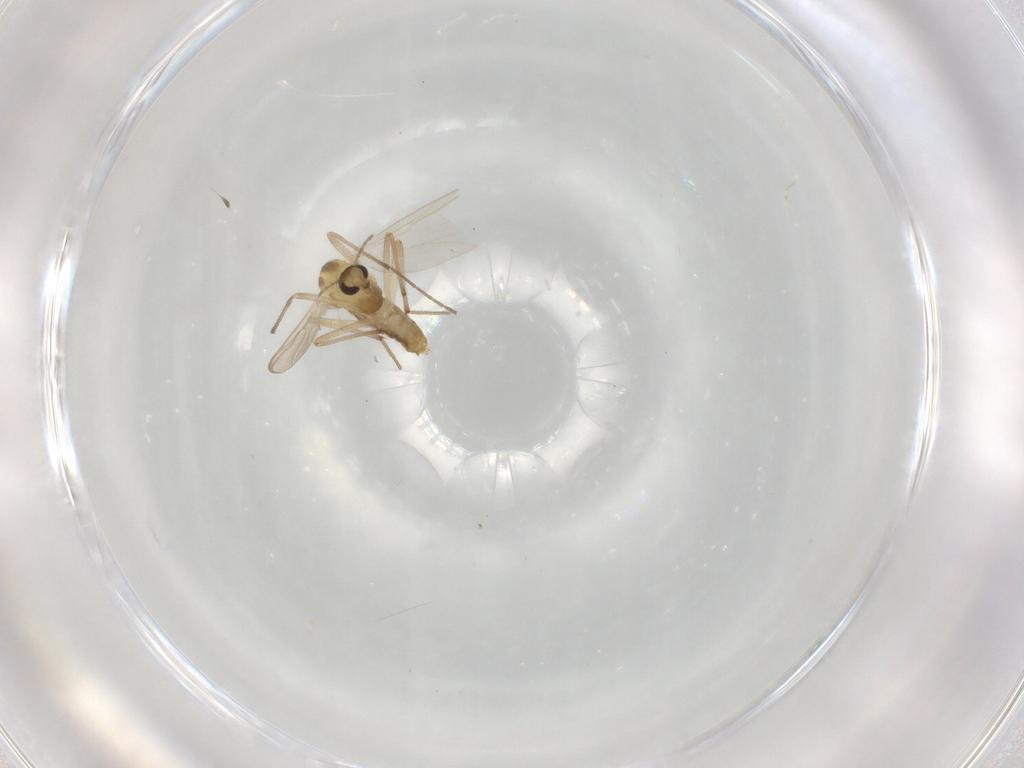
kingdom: Animalia
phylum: Arthropoda
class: Insecta
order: Diptera
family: Chironomidae
